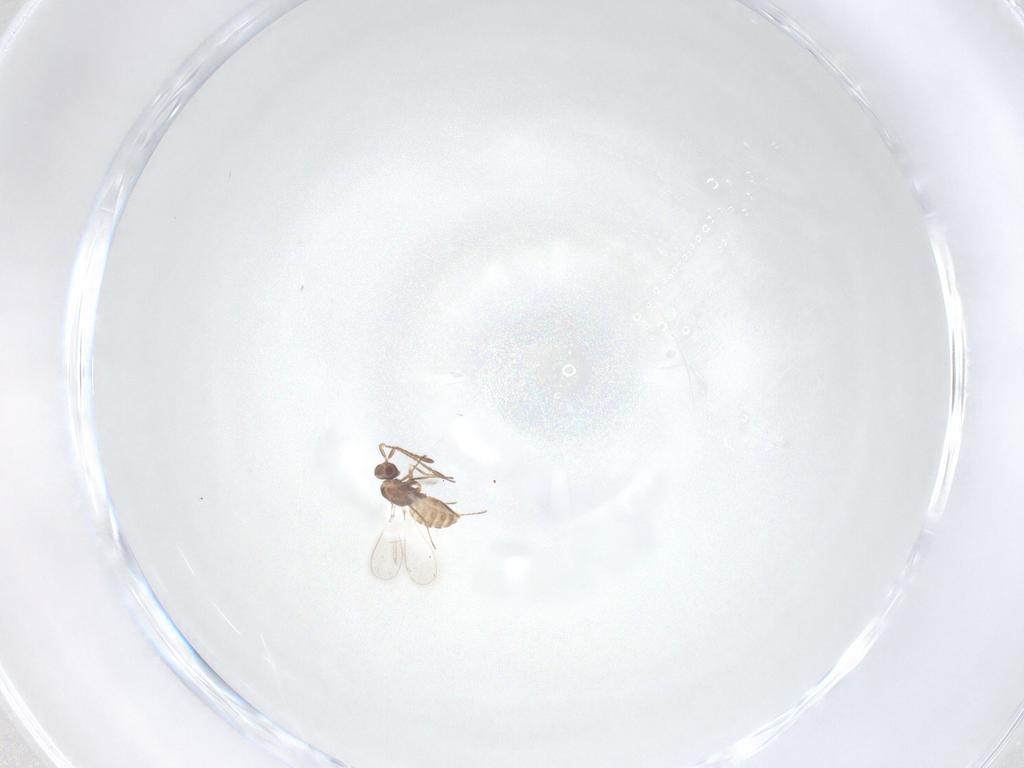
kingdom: Animalia
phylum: Arthropoda
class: Insecta
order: Hymenoptera
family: Mymaridae
